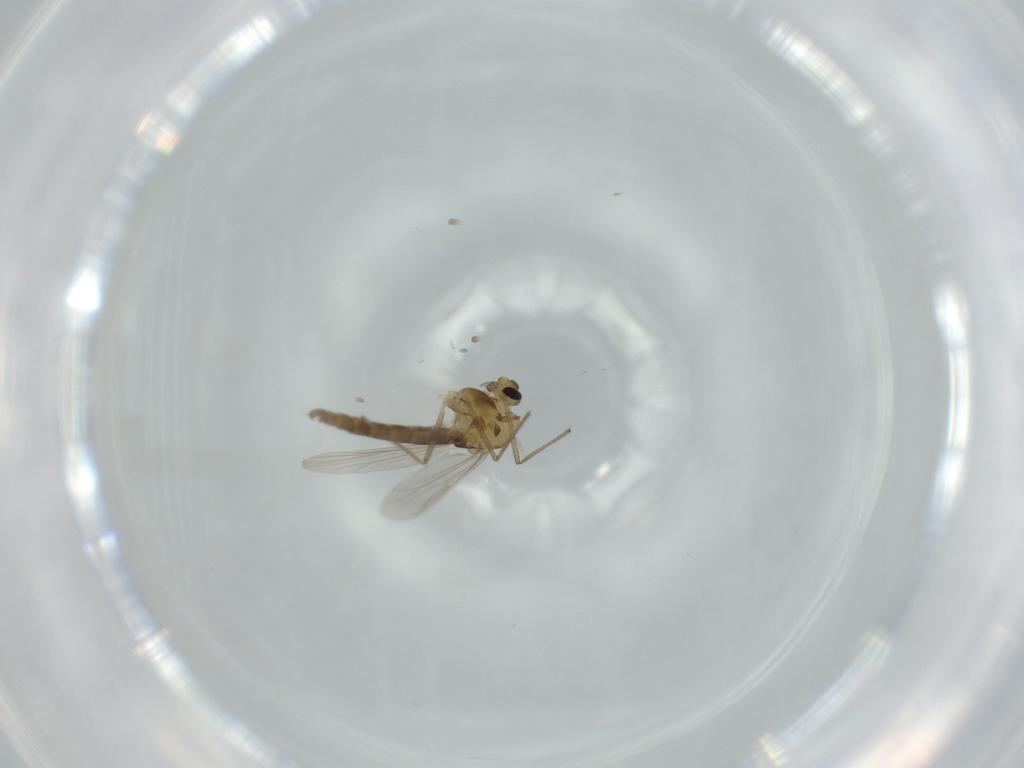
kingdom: Animalia
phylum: Arthropoda
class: Insecta
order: Diptera
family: Chironomidae
